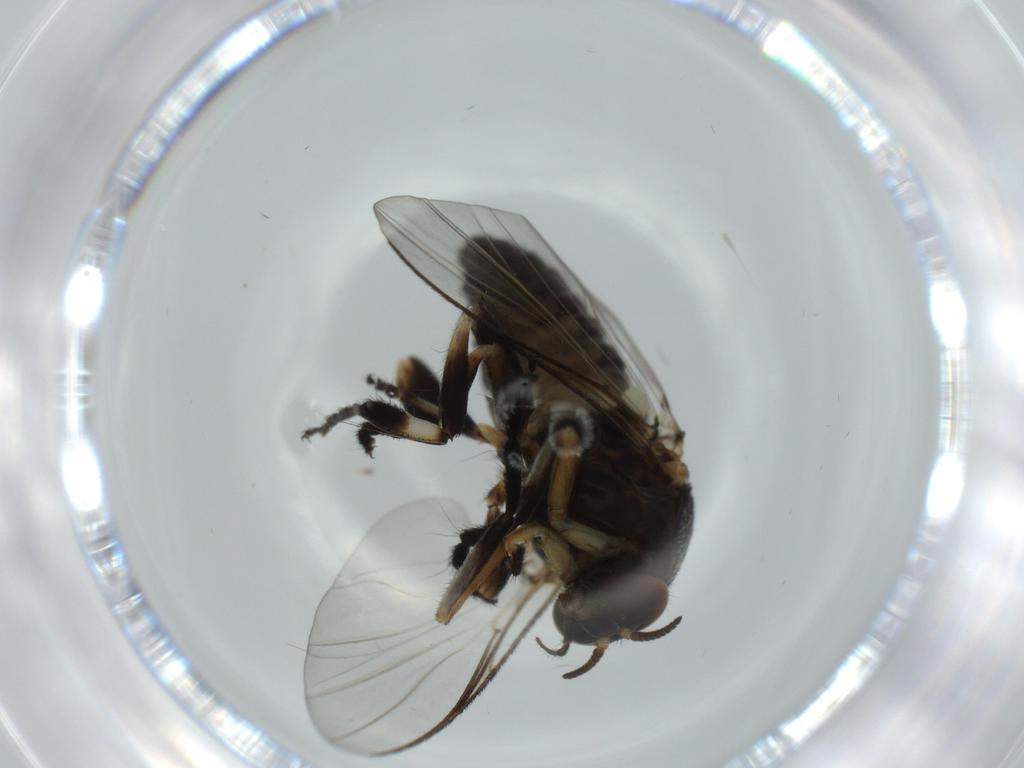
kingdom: Animalia
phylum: Arthropoda
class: Insecta
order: Diptera
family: Cecidomyiidae
